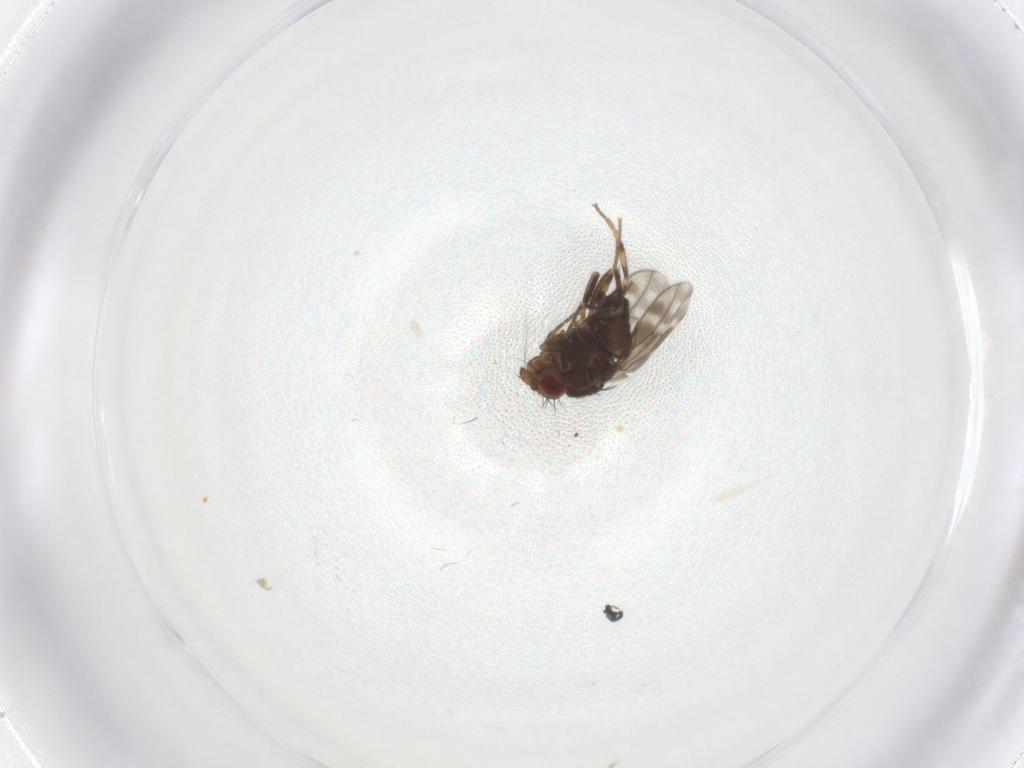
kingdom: Animalia
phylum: Arthropoda
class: Insecta
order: Diptera
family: Sphaeroceridae
